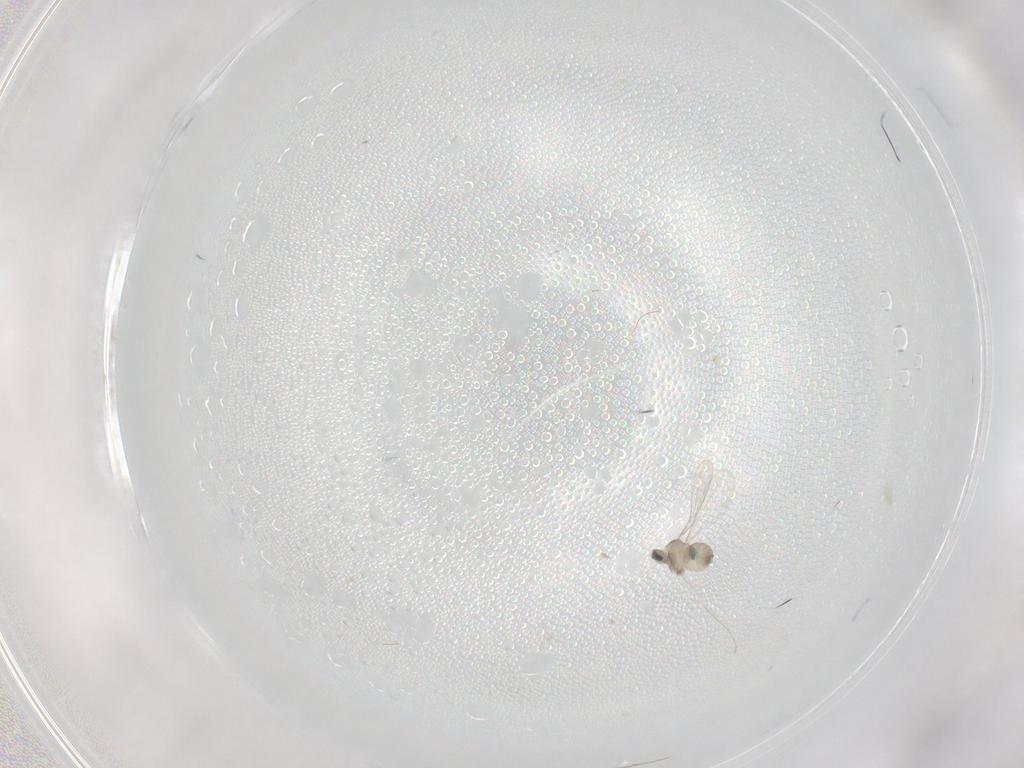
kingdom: Animalia
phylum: Arthropoda
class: Insecta
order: Diptera
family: Cecidomyiidae
